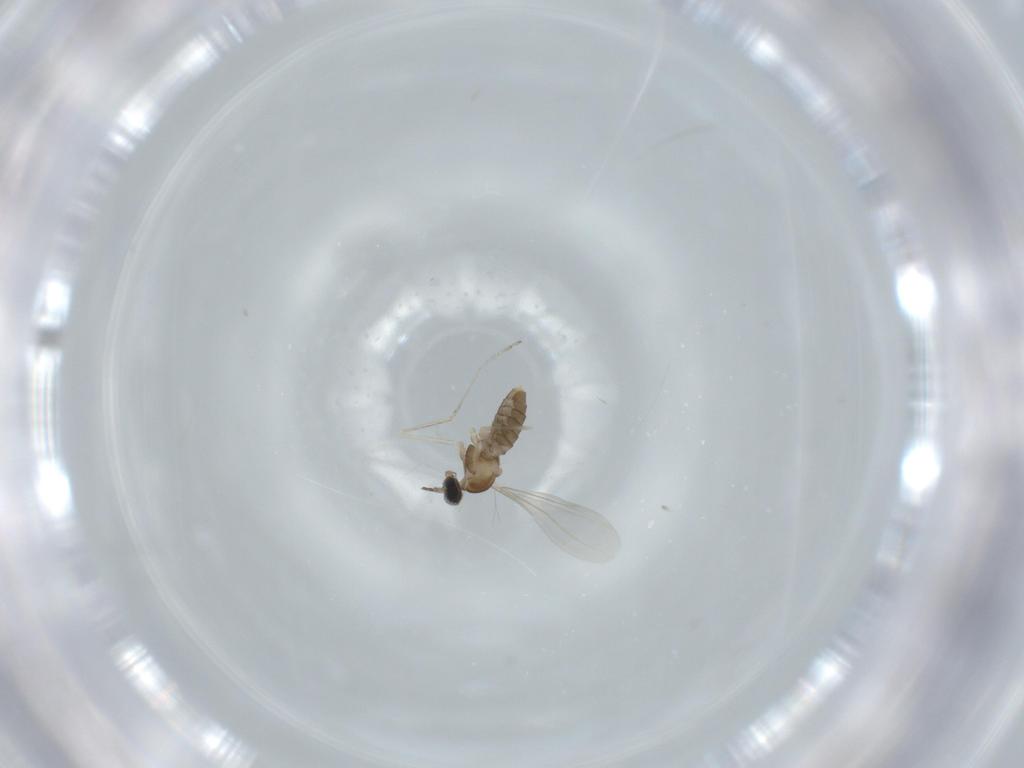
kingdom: Animalia
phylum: Arthropoda
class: Insecta
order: Diptera
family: Cecidomyiidae
